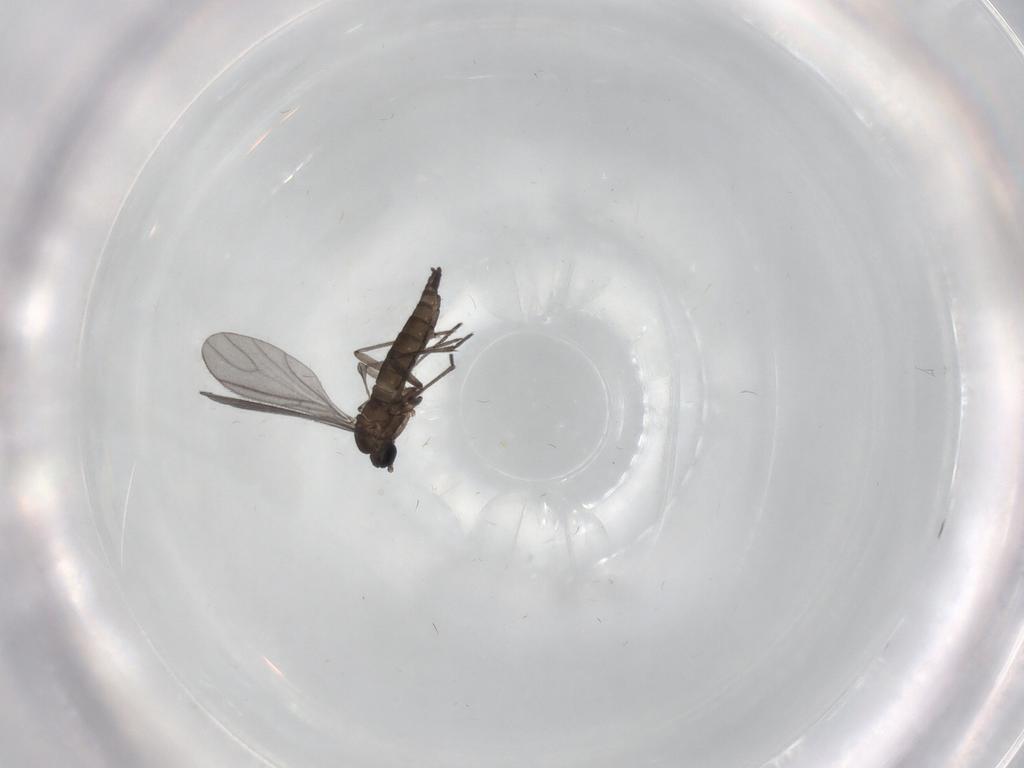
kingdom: Animalia
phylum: Arthropoda
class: Insecta
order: Diptera
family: Sciaridae
